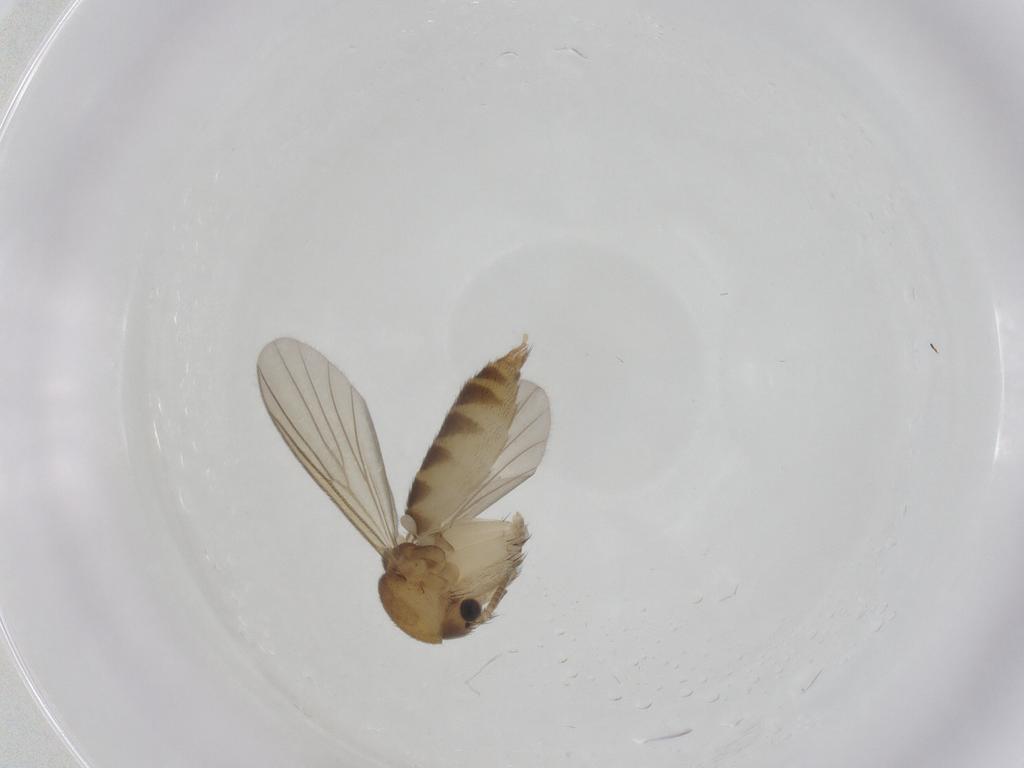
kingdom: Animalia
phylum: Arthropoda
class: Insecta
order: Diptera
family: Mycetophilidae
